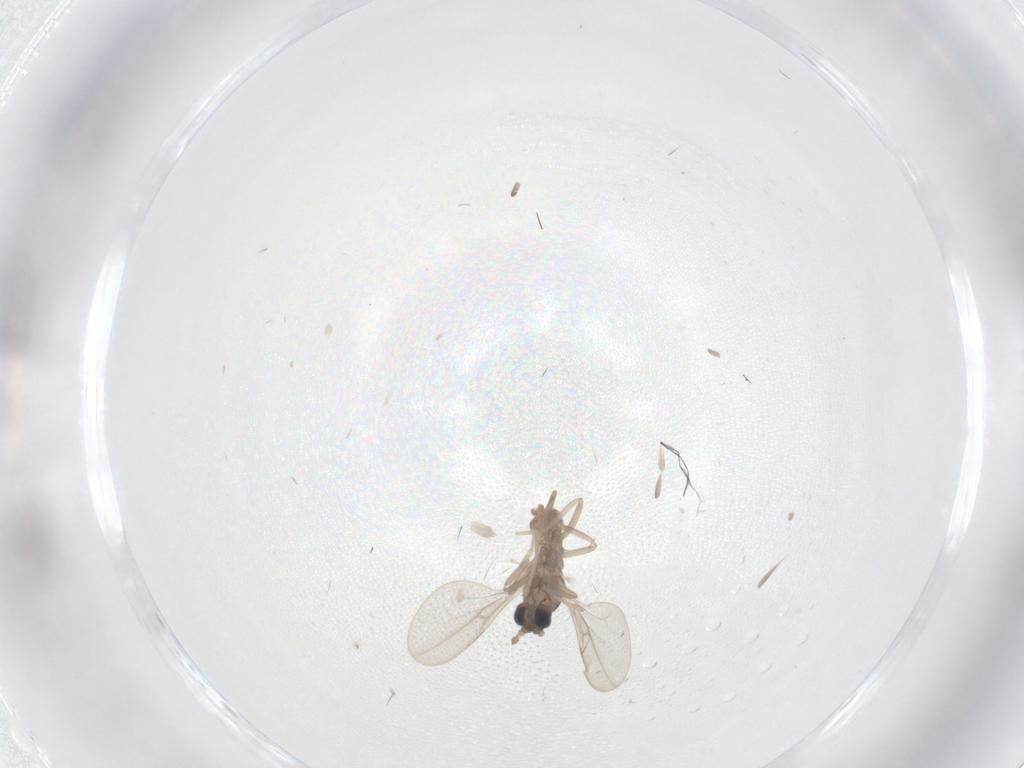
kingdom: Animalia
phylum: Arthropoda
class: Insecta
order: Diptera
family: Cecidomyiidae
